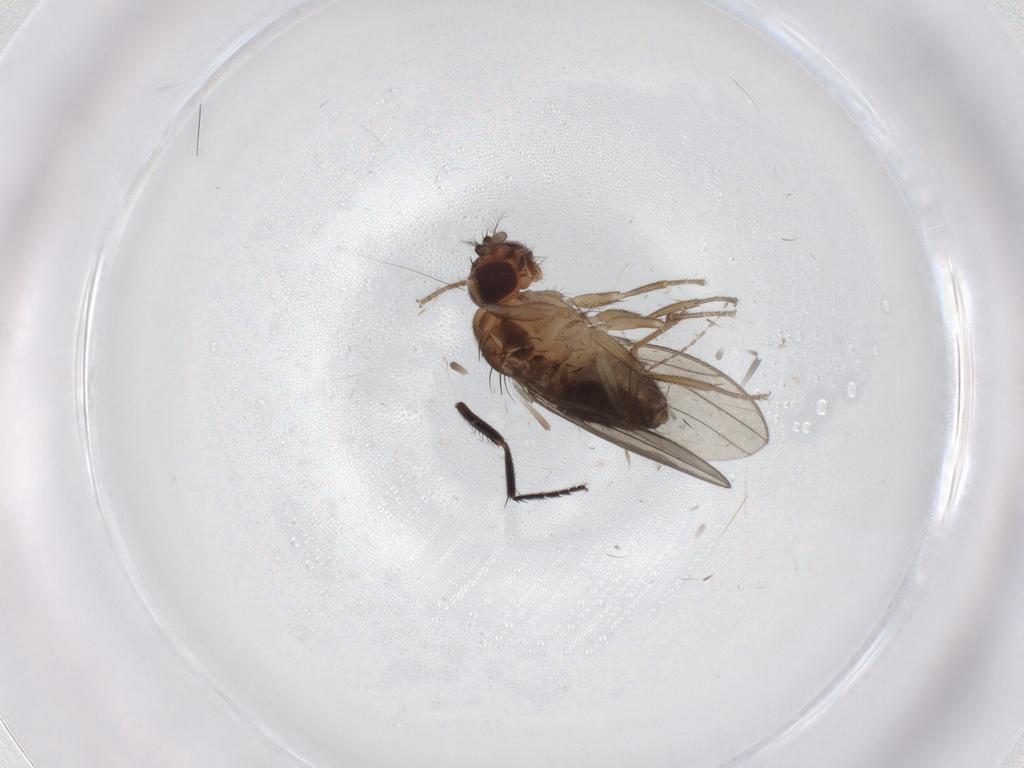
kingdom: Animalia
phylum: Arthropoda
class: Insecta
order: Diptera
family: Drosophilidae
